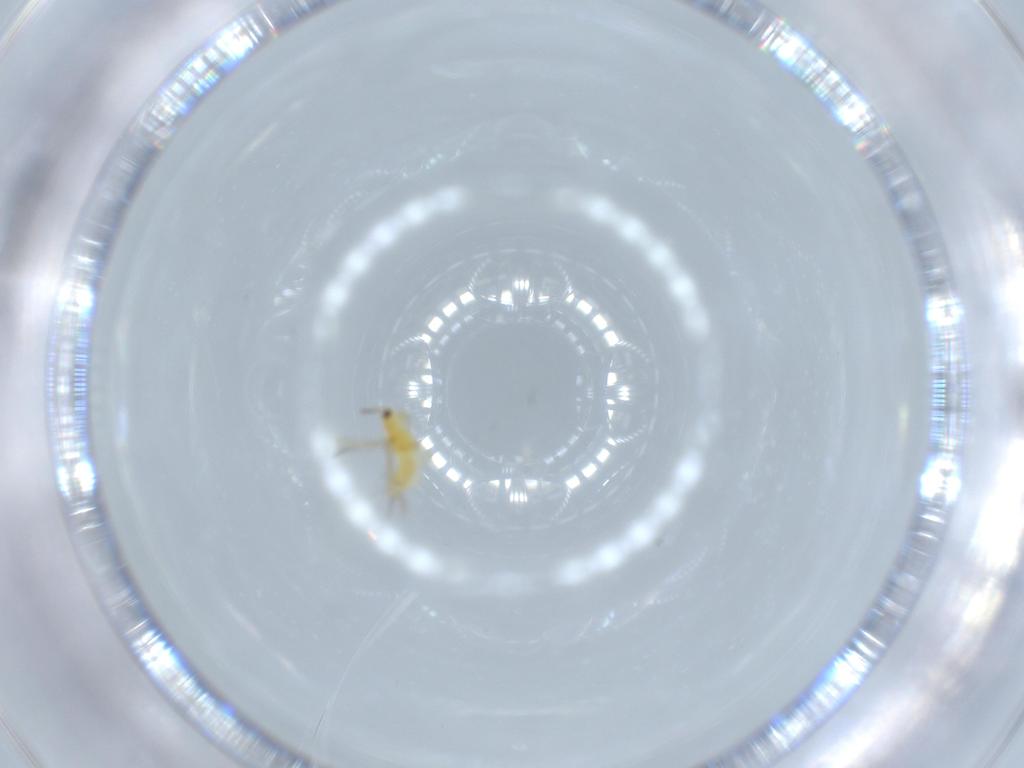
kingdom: Animalia
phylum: Arthropoda
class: Insecta
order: Thysanoptera
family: Thripidae
